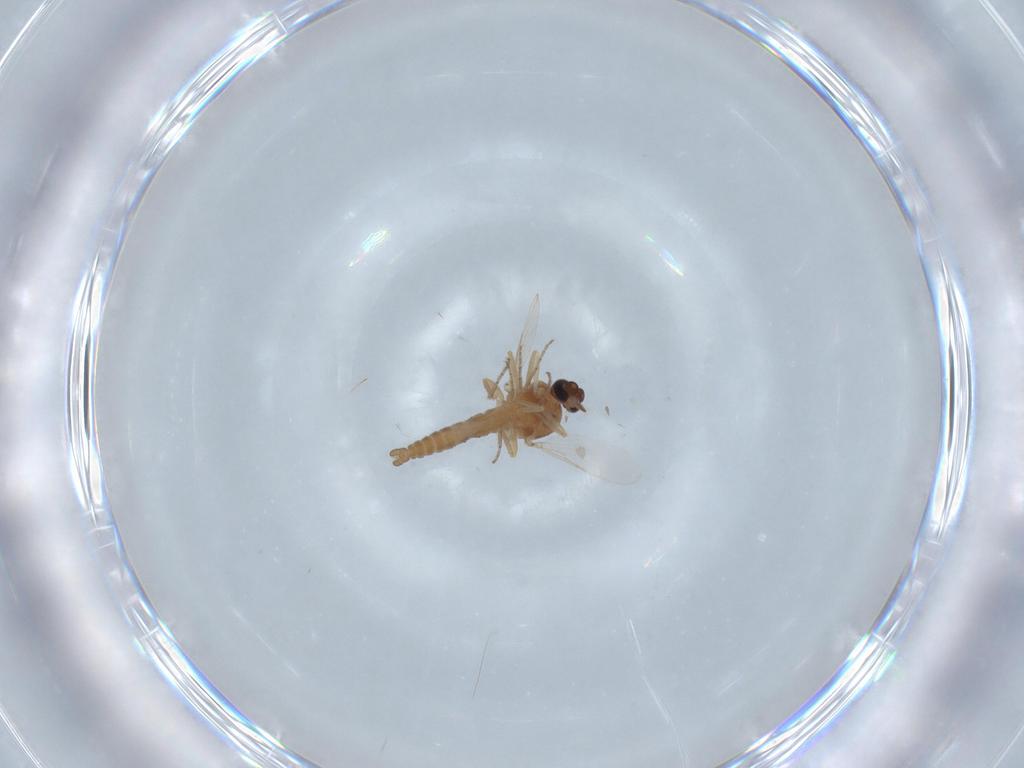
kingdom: Animalia
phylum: Arthropoda
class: Insecta
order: Diptera
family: Ceratopogonidae
